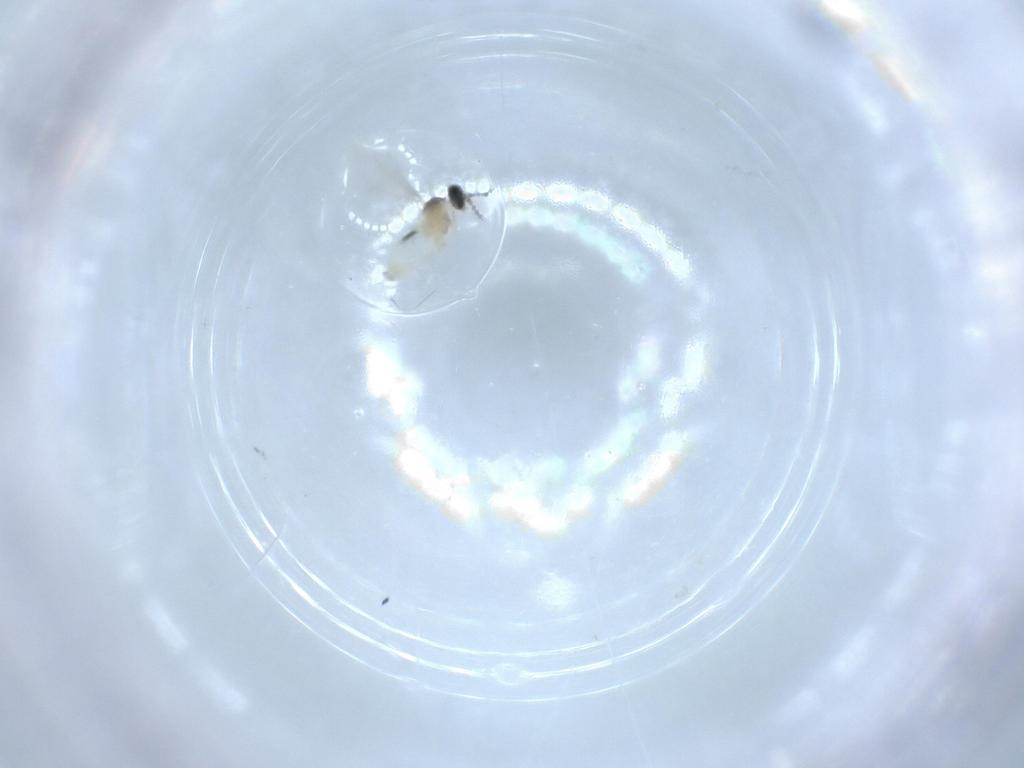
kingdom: Animalia
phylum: Arthropoda
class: Insecta
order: Diptera
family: Cecidomyiidae
